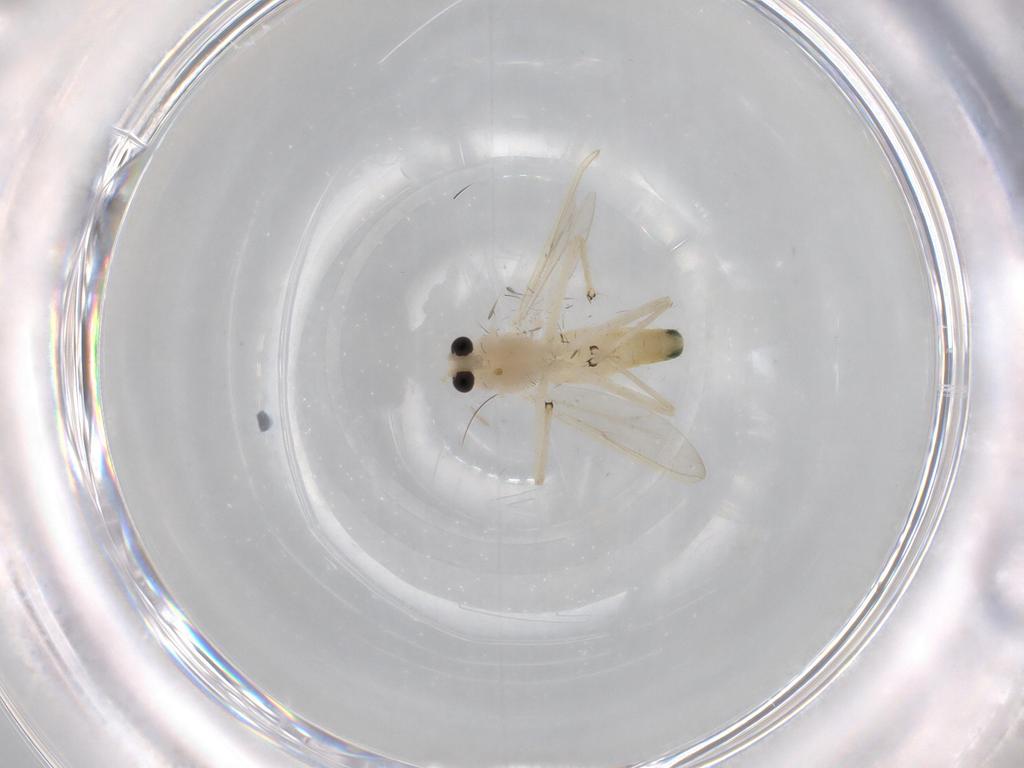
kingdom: Animalia
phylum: Arthropoda
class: Insecta
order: Diptera
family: Chironomidae
